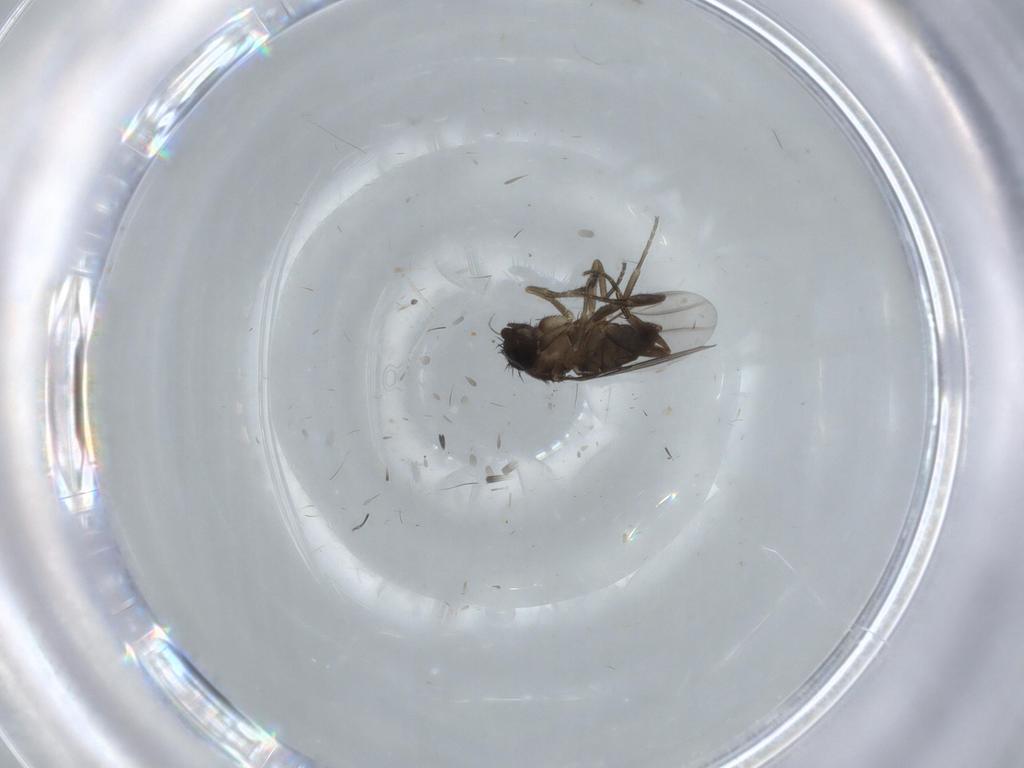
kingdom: Animalia
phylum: Arthropoda
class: Insecta
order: Diptera
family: Phoridae
